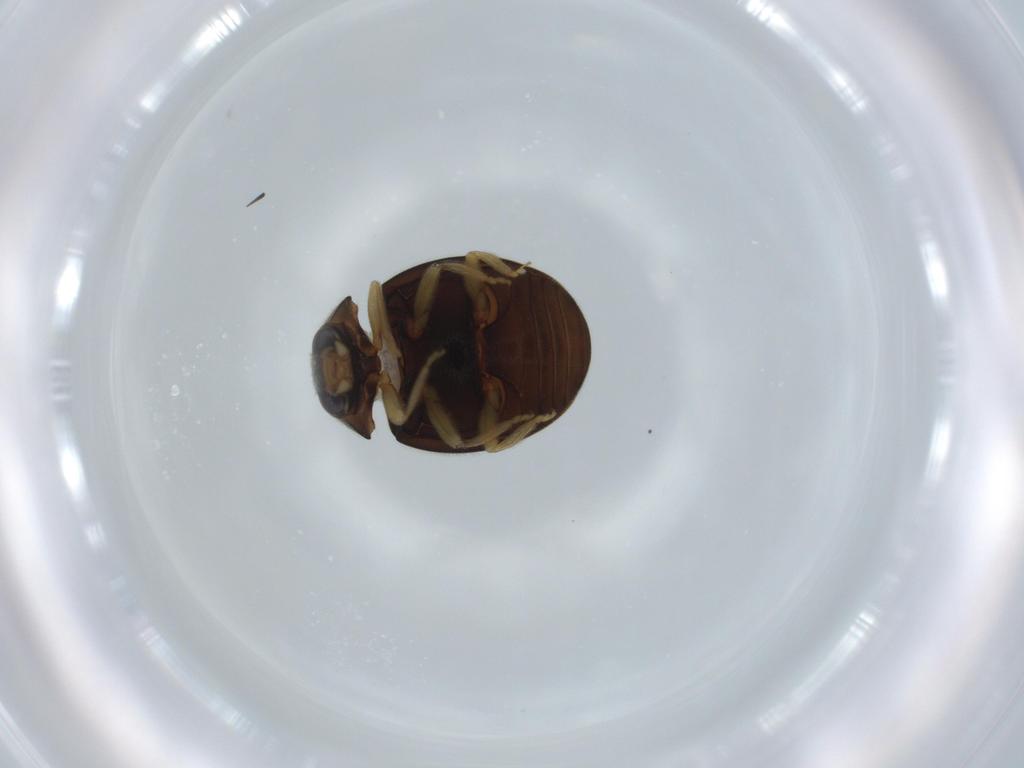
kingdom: Animalia
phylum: Arthropoda
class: Insecta
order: Coleoptera
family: Coccinellidae
